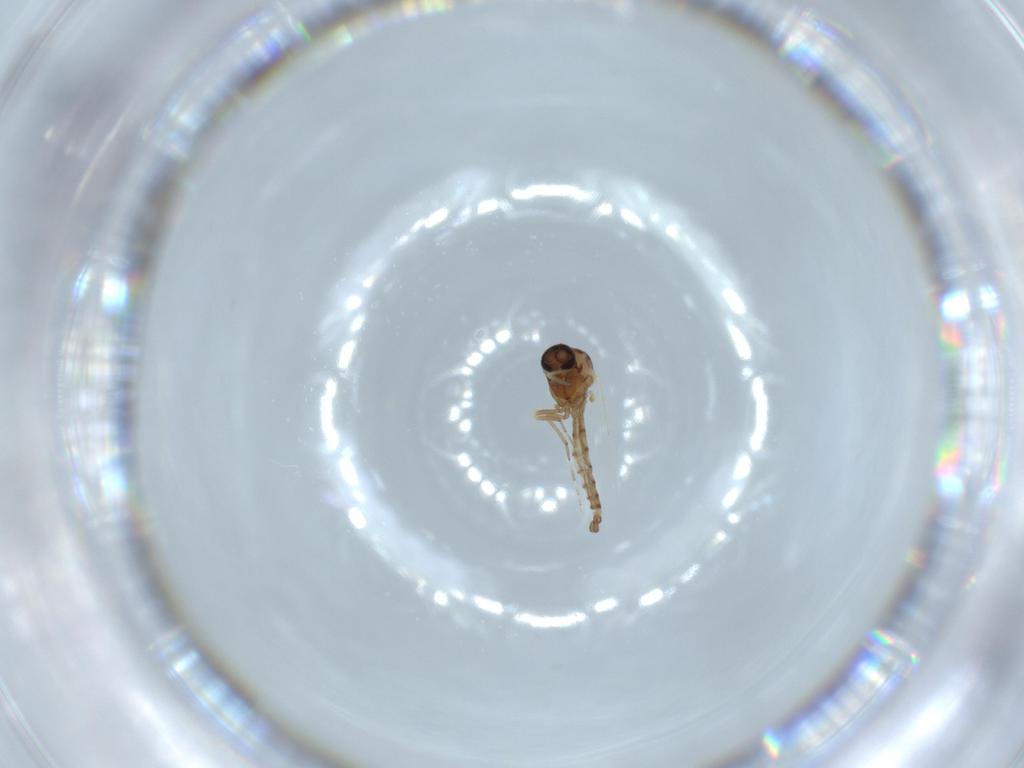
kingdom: Animalia
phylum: Arthropoda
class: Insecta
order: Diptera
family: Ceratopogonidae
